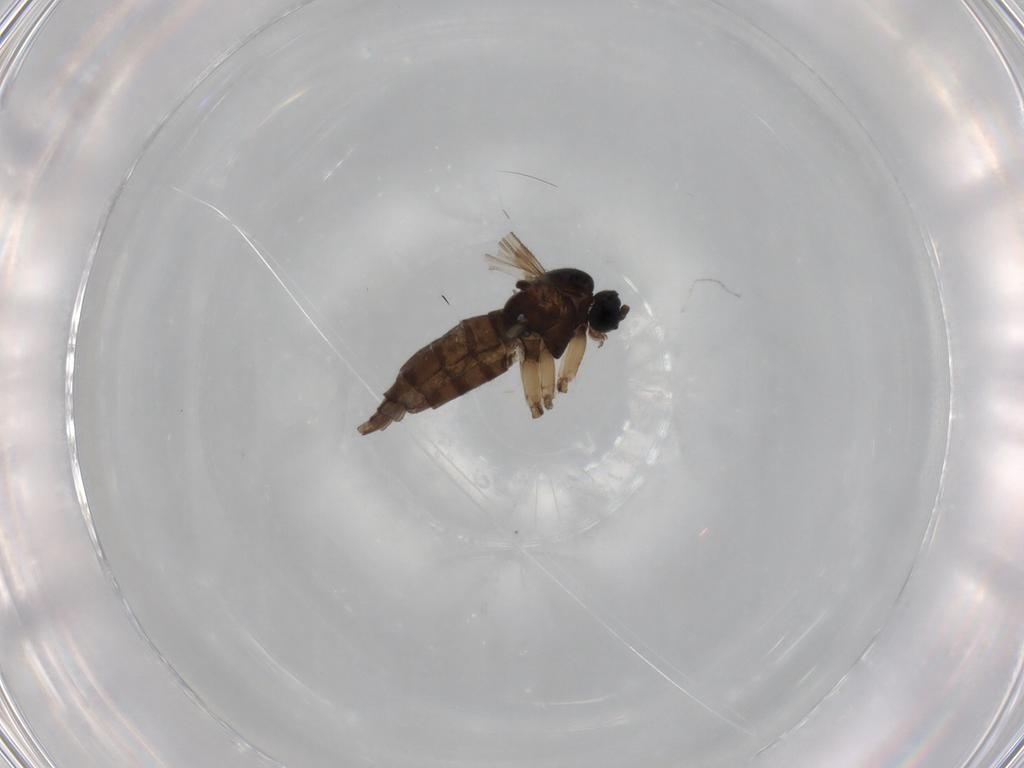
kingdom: Animalia
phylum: Arthropoda
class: Insecta
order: Diptera
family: Sciaridae
